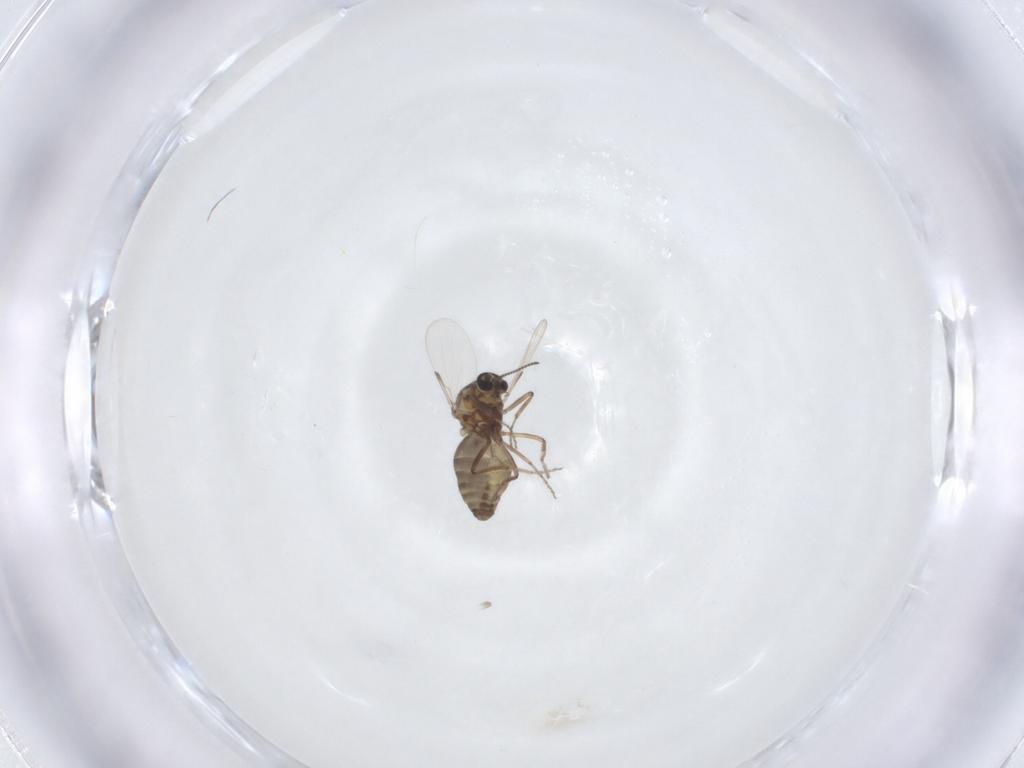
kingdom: Animalia
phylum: Arthropoda
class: Insecta
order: Diptera
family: Ceratopogonidae
